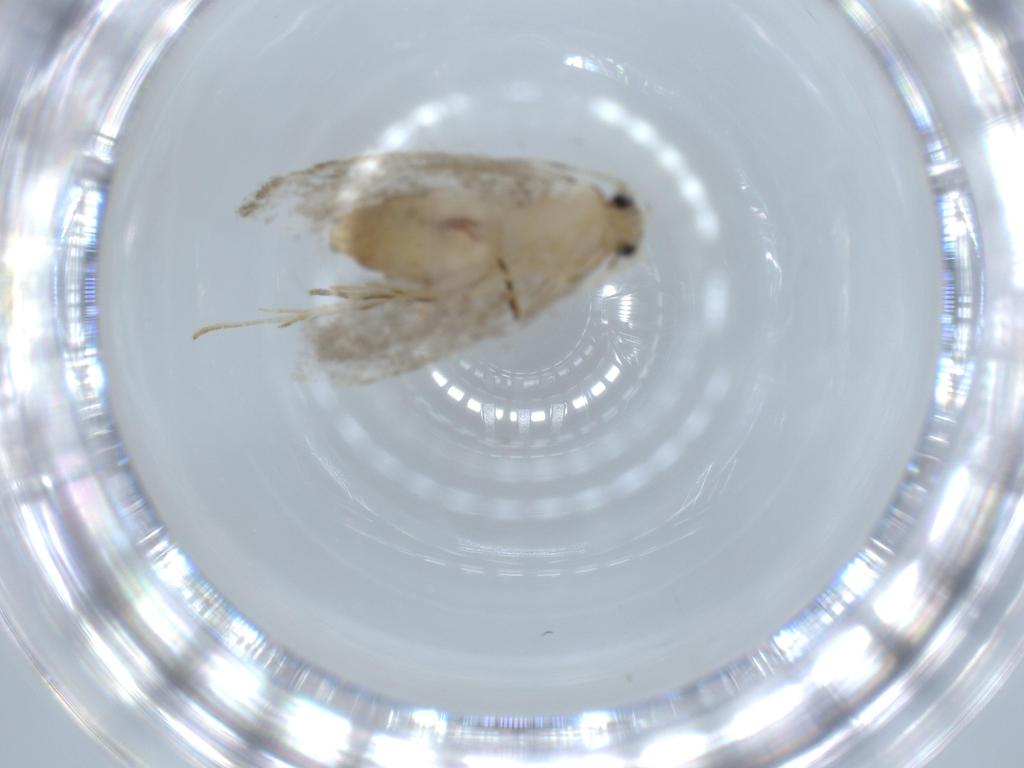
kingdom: Animalia
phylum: Arthropoda
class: Insecta
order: Lepidoptera
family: Tineidae
